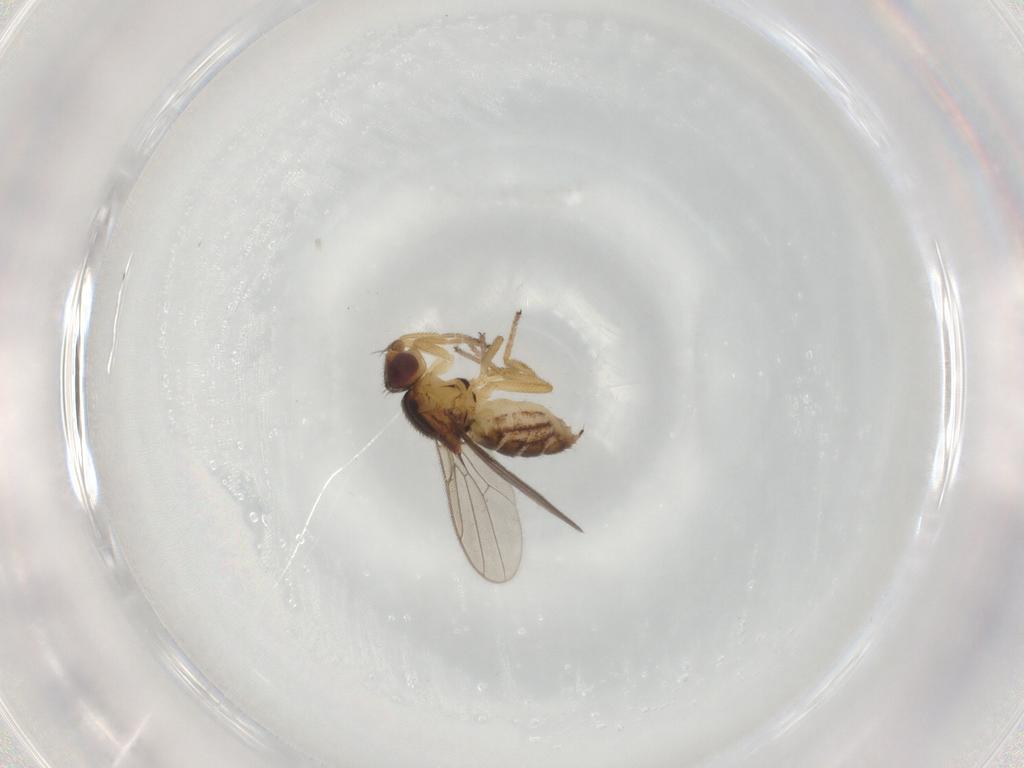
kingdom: Animalia
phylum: Arthropoda
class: Insecta
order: Diptera
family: Chloropidae
